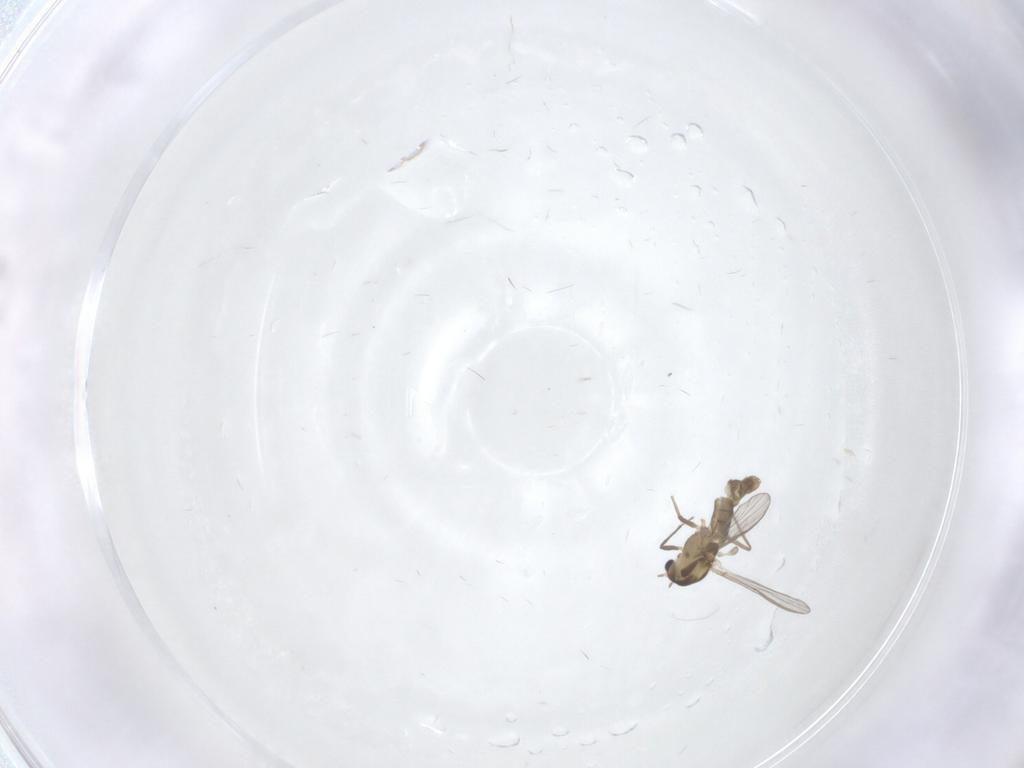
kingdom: Animalia
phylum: Arthropoda
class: Insecta
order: Diptera
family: Chironomidae
